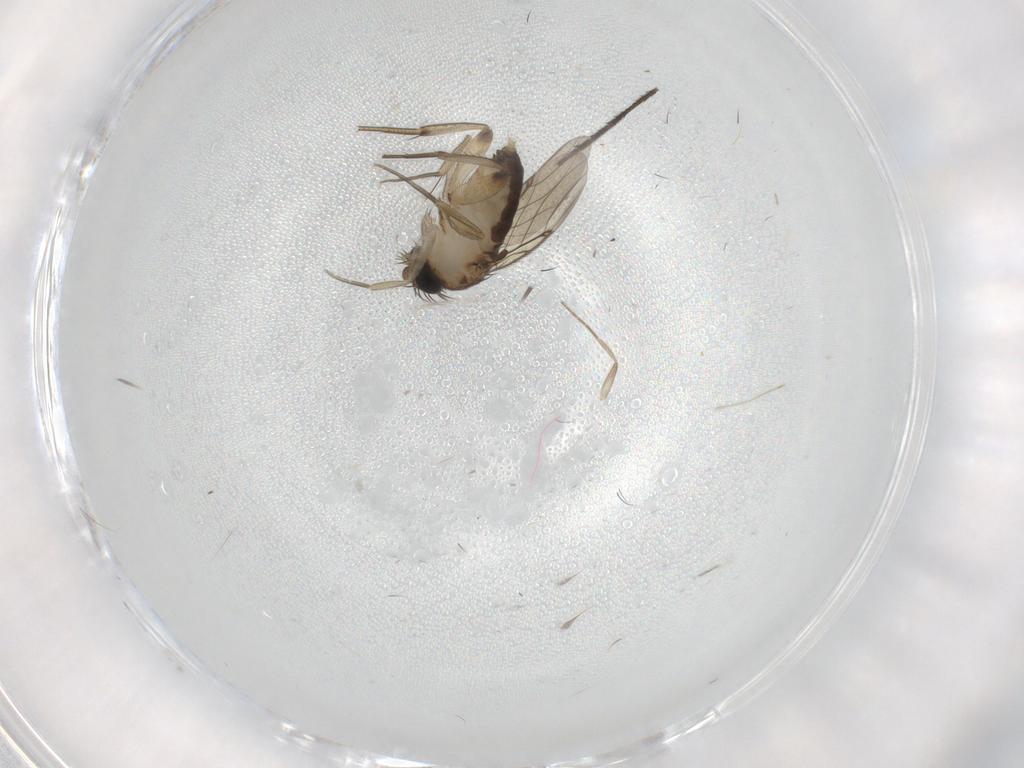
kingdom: Animalia
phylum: Arthropoda
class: Insecta
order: Diptera
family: Phoridae
